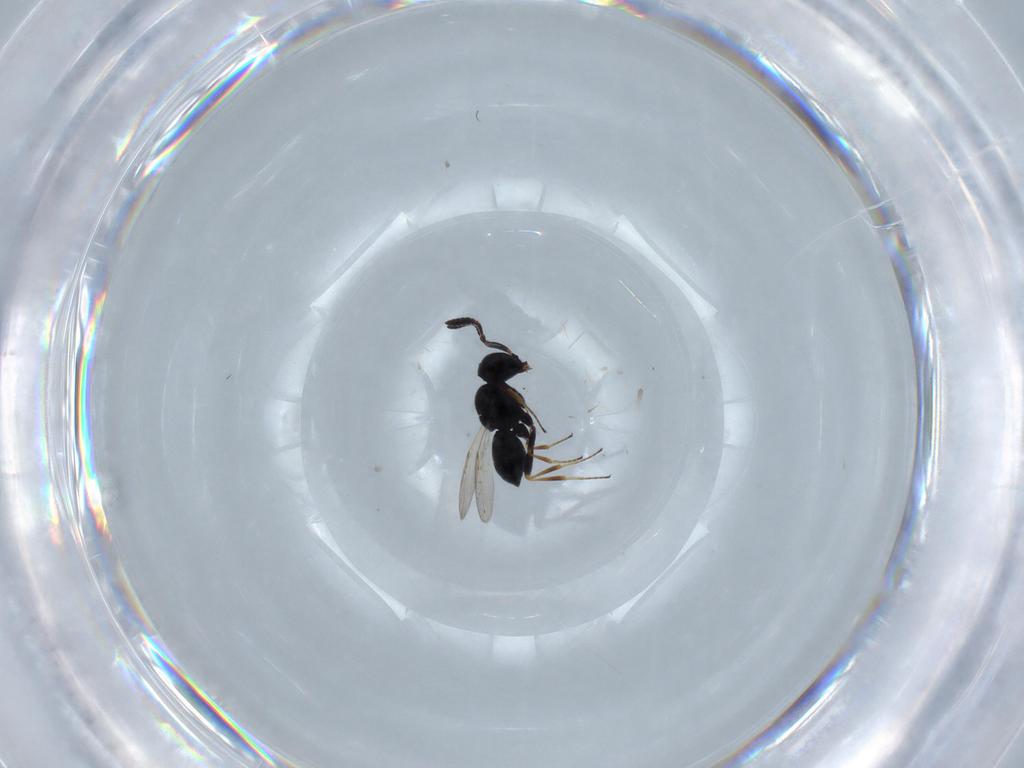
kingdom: Animalia
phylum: Arthropoda
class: Insecta
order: Hymenoptera
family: Scelionidae
